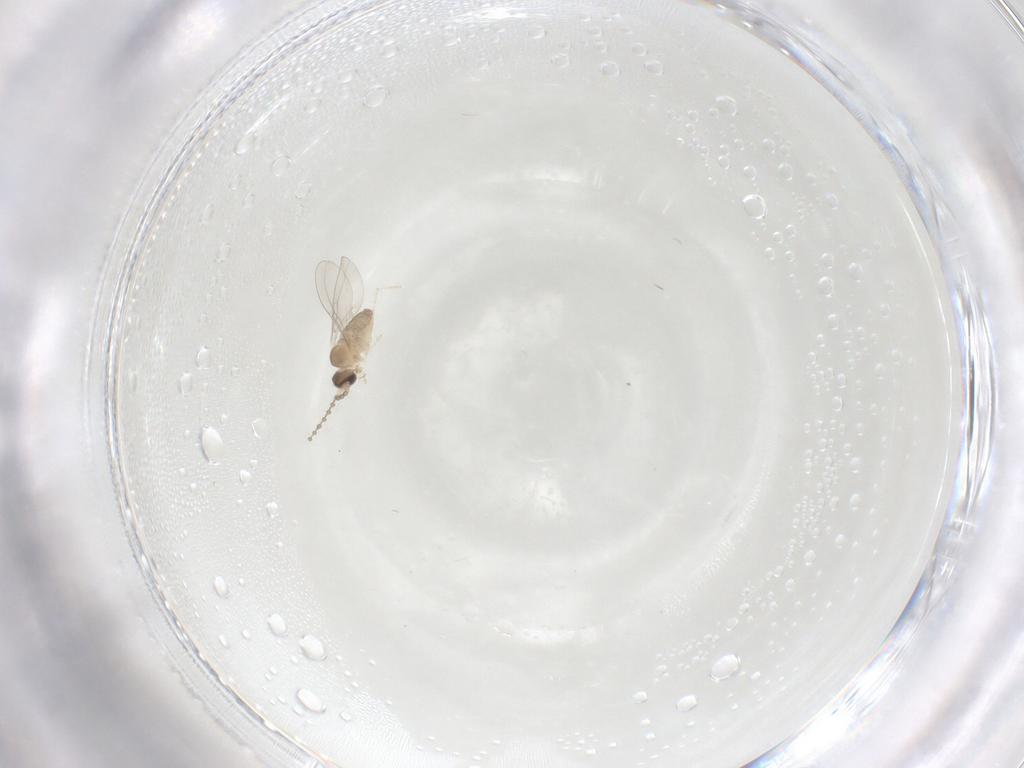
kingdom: Animalia
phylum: Arthropoda
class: Insecta
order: Diptera
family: Cecidomyiidae
